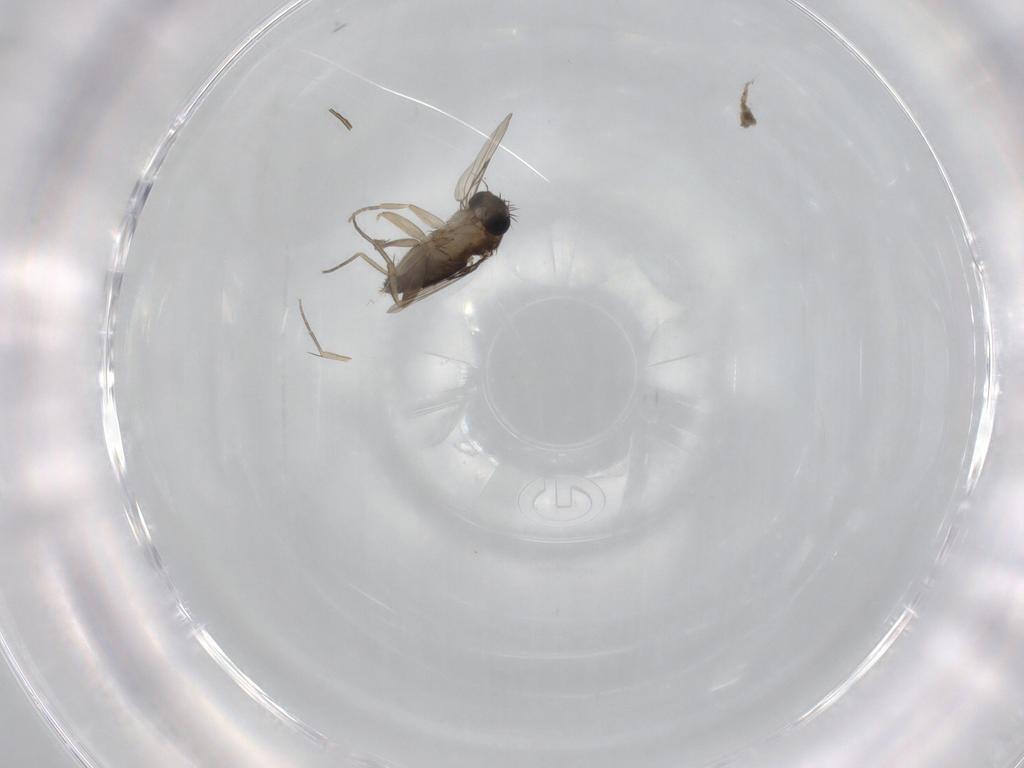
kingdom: Animalia
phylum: Arthropoda
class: Insecta
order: Diptera
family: Phoridae
